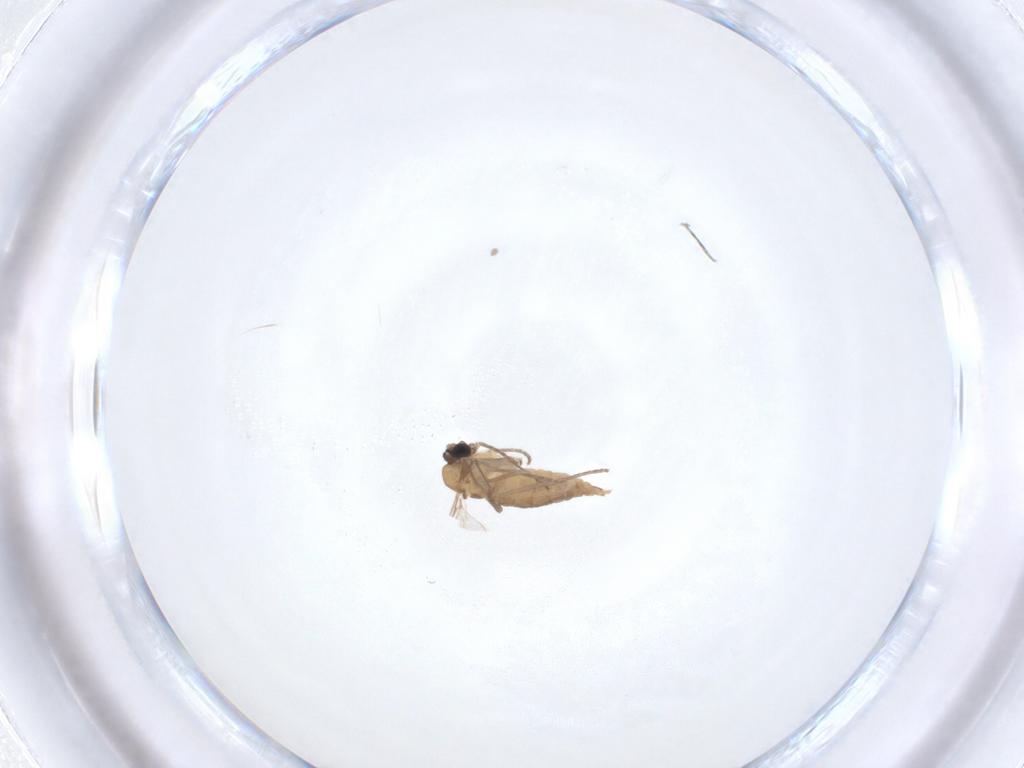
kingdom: Animalia
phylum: Arthropoda
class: Insecta
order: Diptera
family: Sciaridae
